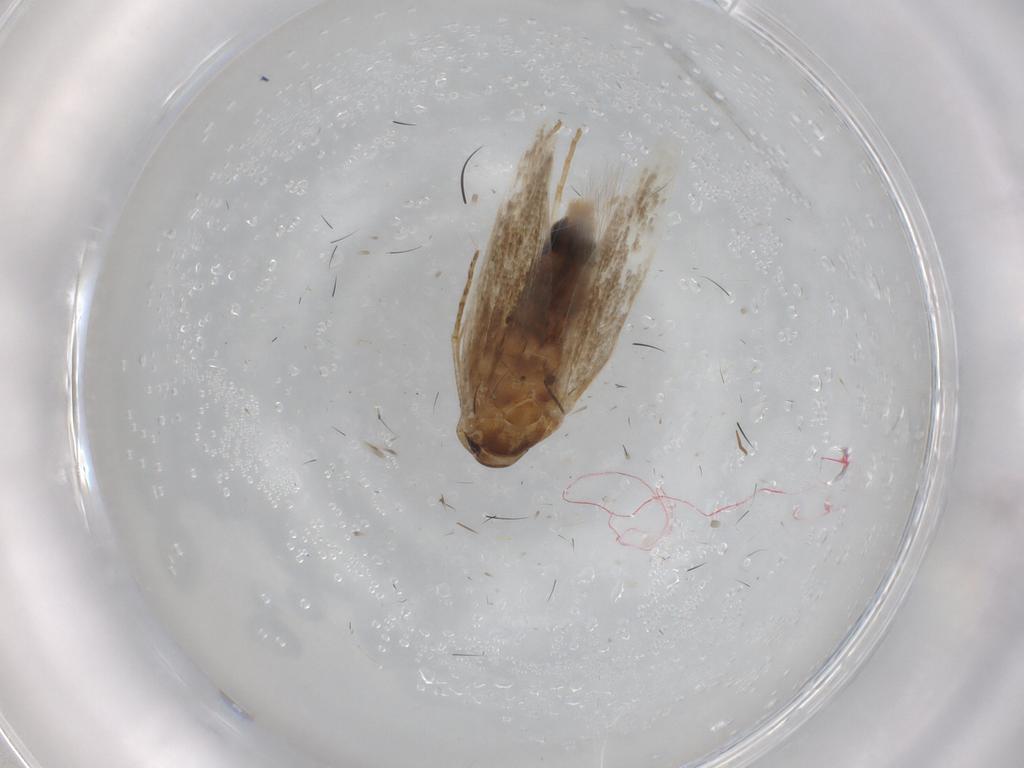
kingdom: Animalia
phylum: Arthropoda
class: Insecta
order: Lepidoptera
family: Cosmopterigidae
